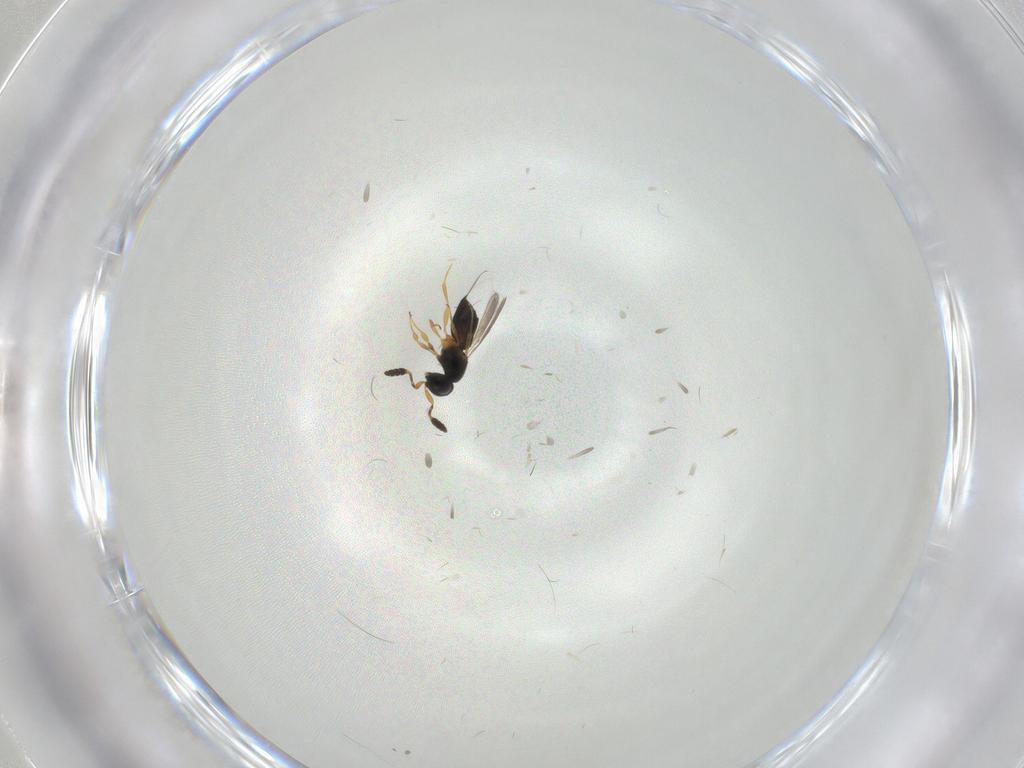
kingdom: Animalia
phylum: Arthropoda
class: Insecta
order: Hymenoptera
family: Scelionidae
